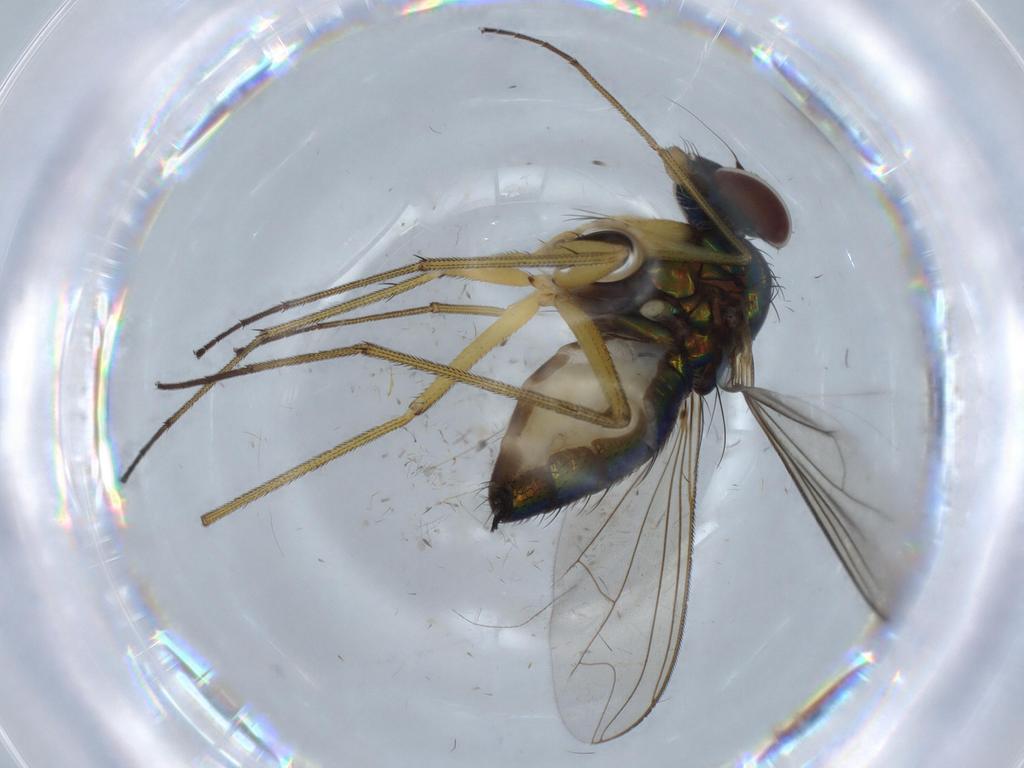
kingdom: Animalia
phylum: Arthropoda
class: Insecta
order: Diptera
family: Dolichopodidae
